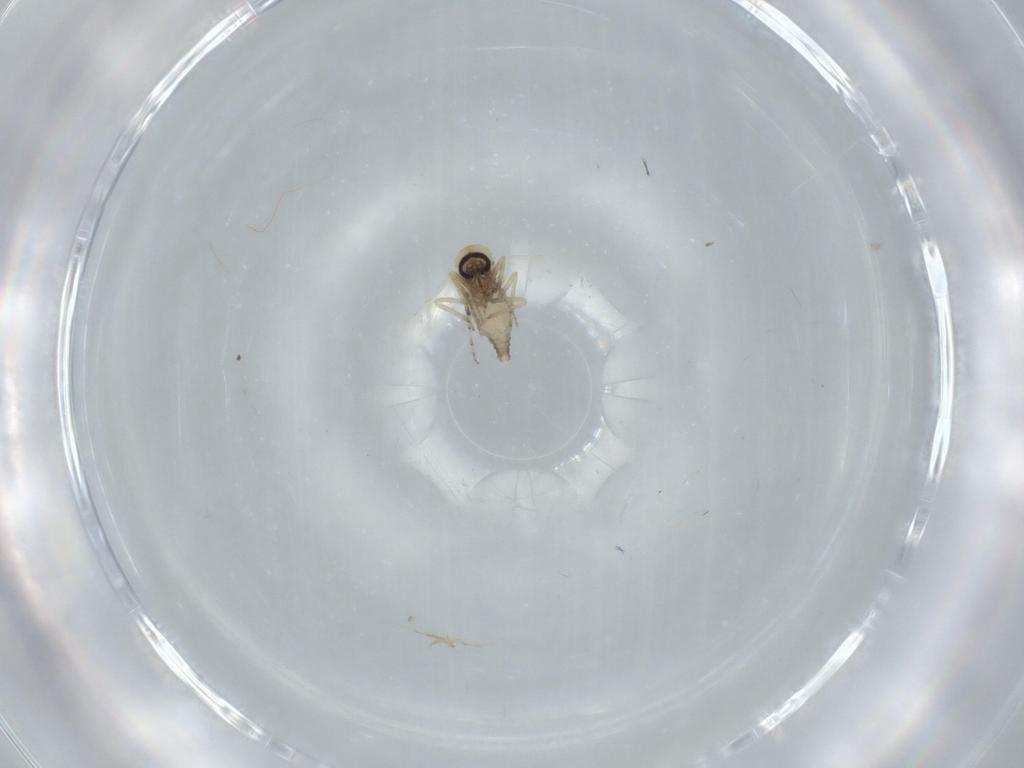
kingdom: Animalia
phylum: Arthropoda
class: Insecta
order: Diptera
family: Ceratopogonidae
